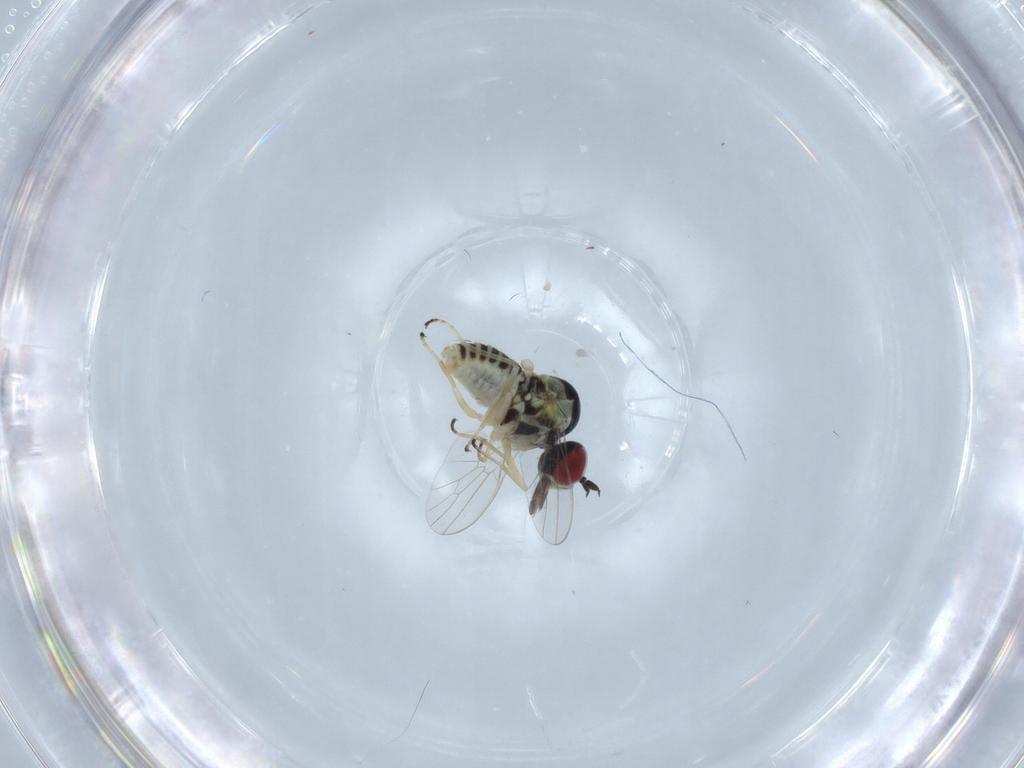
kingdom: Animalia
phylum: Arthropoda
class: Insecta
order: Diptera
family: Bombyliidae
